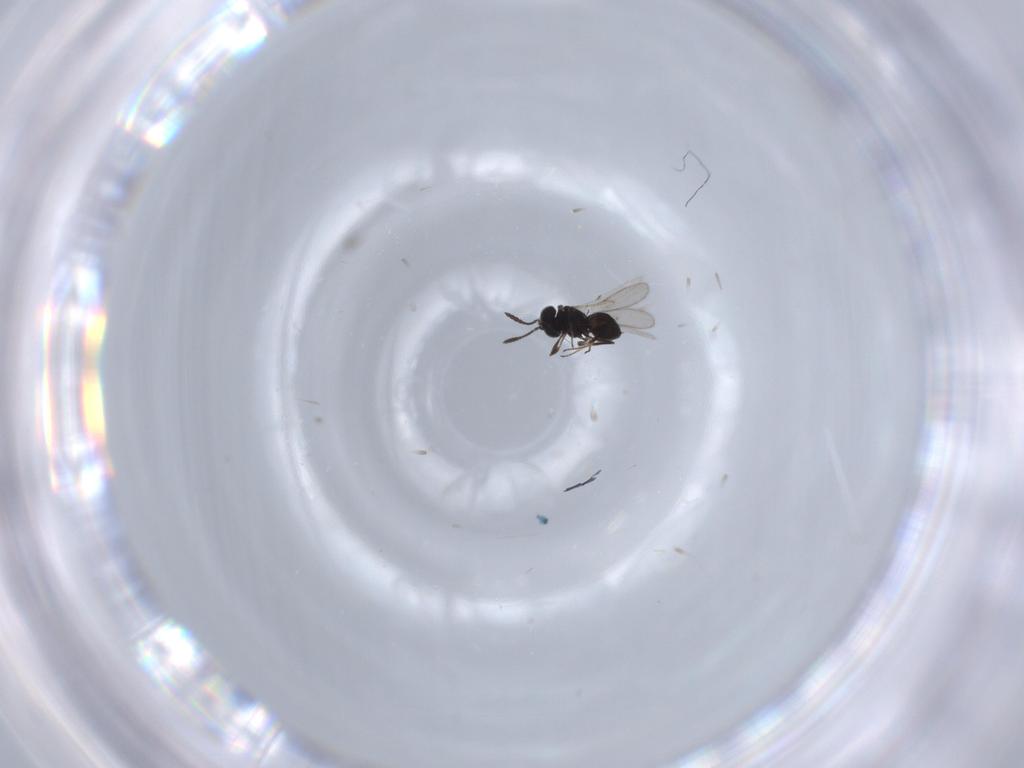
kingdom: Animalia
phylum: Arthropoda
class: Insecta
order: Hymenoptera
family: Scelionidae
